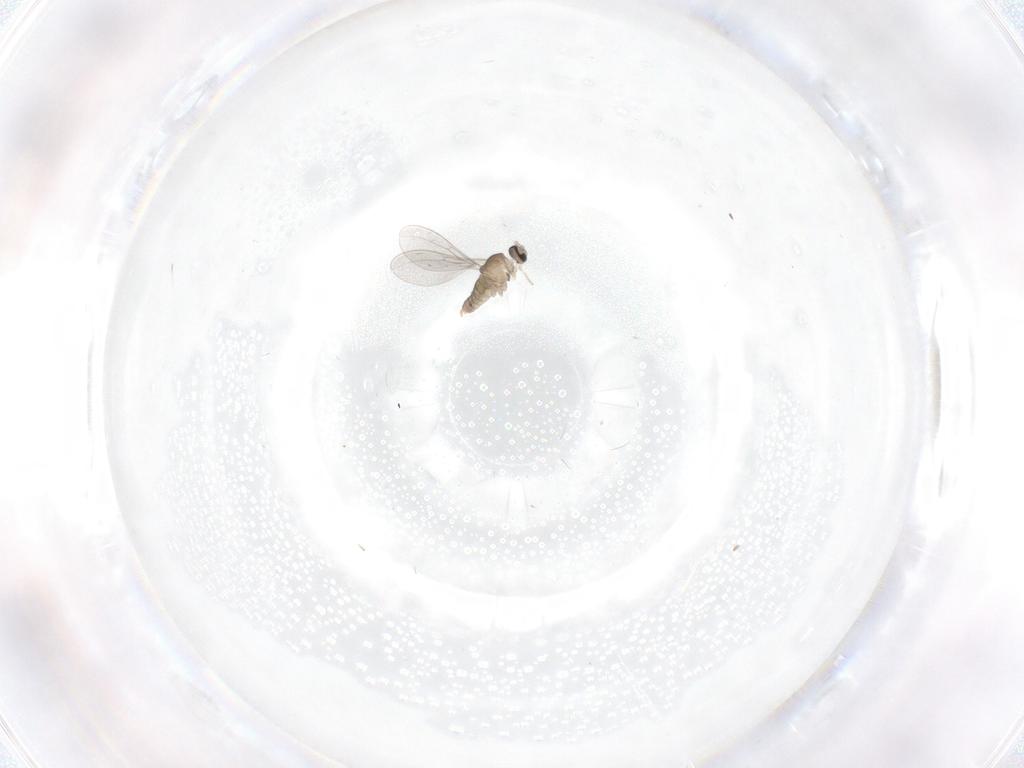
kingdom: Animalia
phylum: Arthropoda
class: Insecta
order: Diptera
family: Cecidomyiidae
